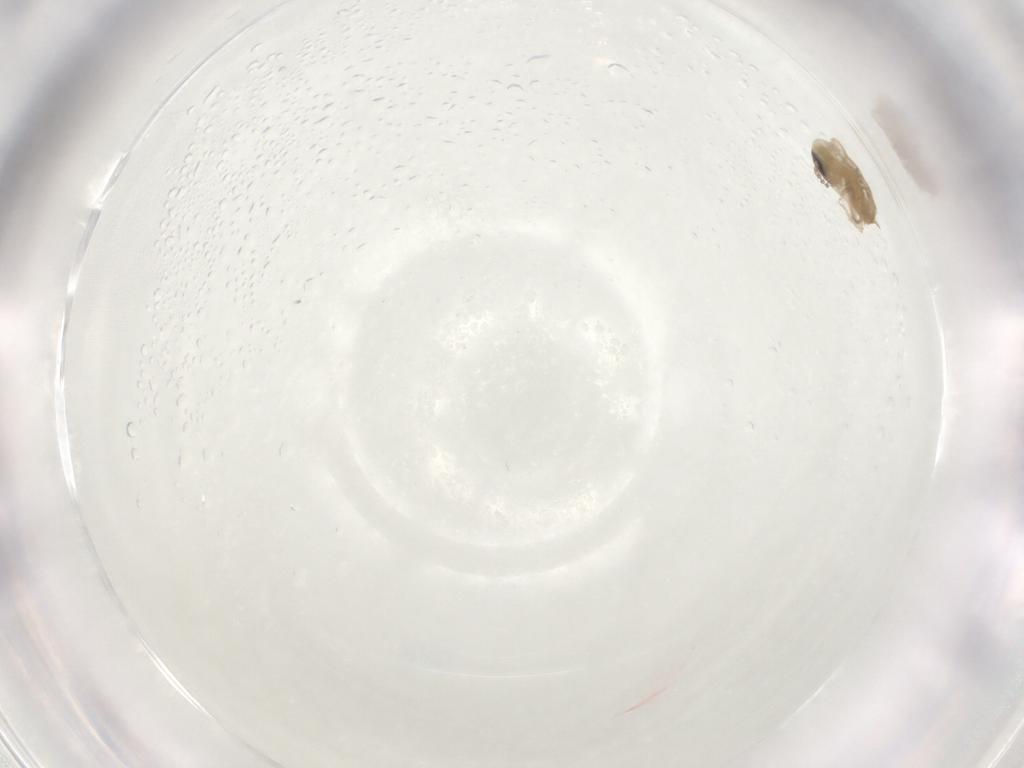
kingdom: Animalia
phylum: Arthropoda
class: Insecta
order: Diptera
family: Psychodidae
